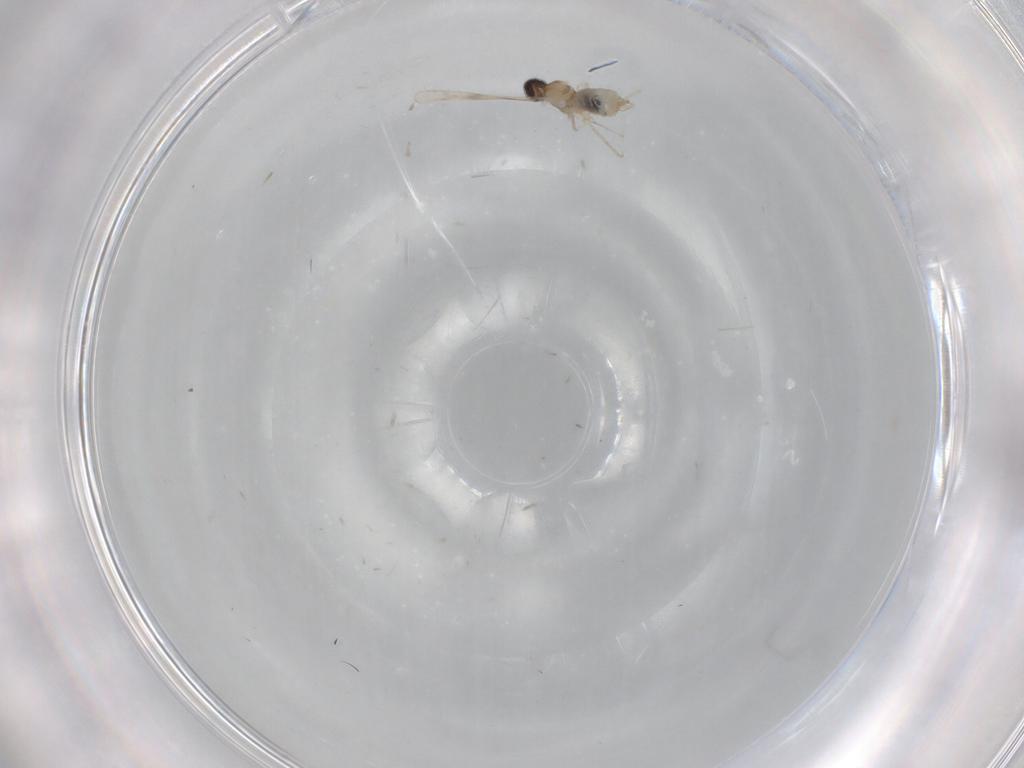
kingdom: Animalia
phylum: Arthropoda
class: Insecta
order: Diptera
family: Cecidomyiidae
